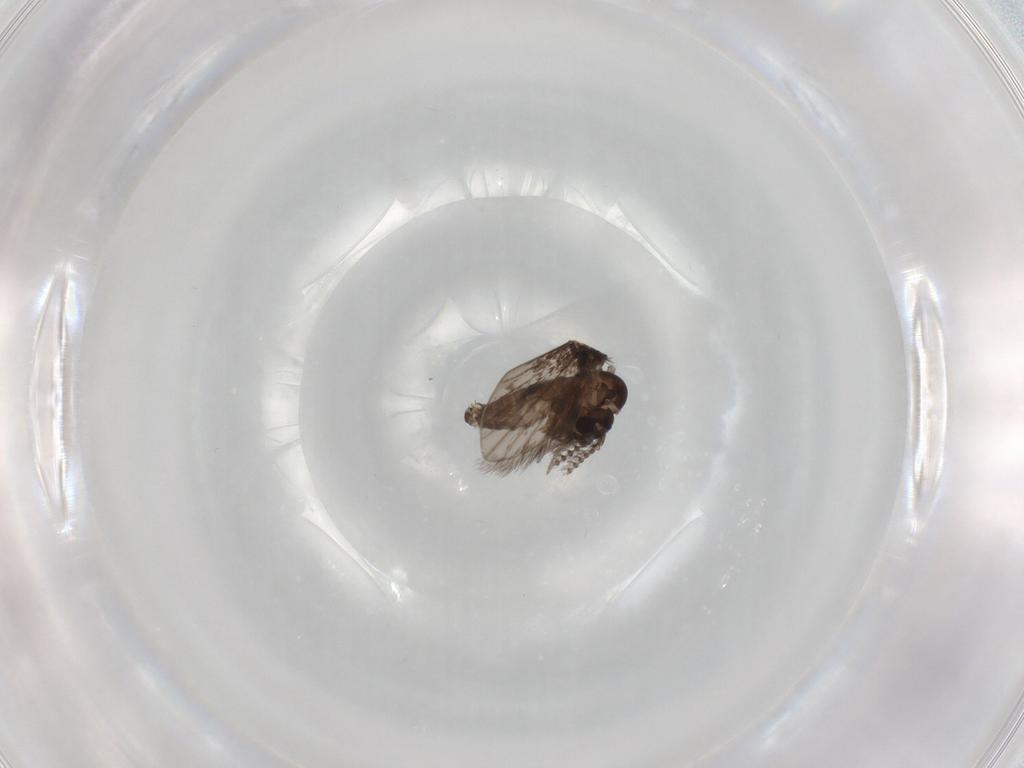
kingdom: Animalia
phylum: Arthropoda
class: Insecta
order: Diptera
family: Psychodidae
